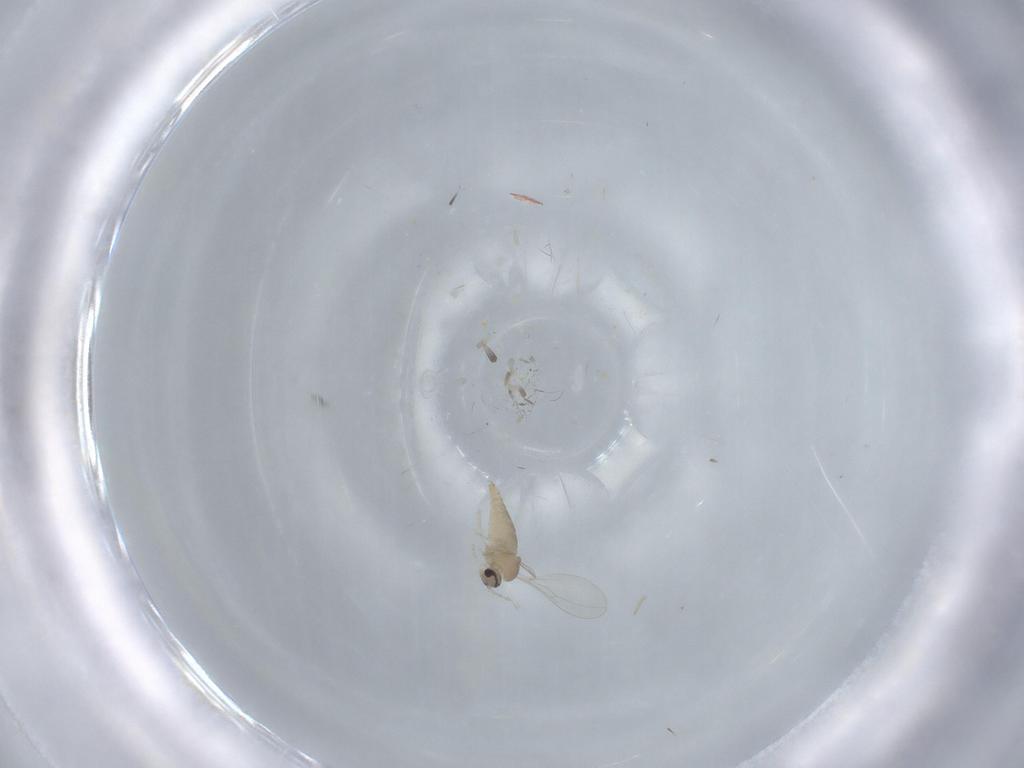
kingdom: Animalia
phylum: Arthropoda
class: Insecta
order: Diptera
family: Cecidomyiidae
